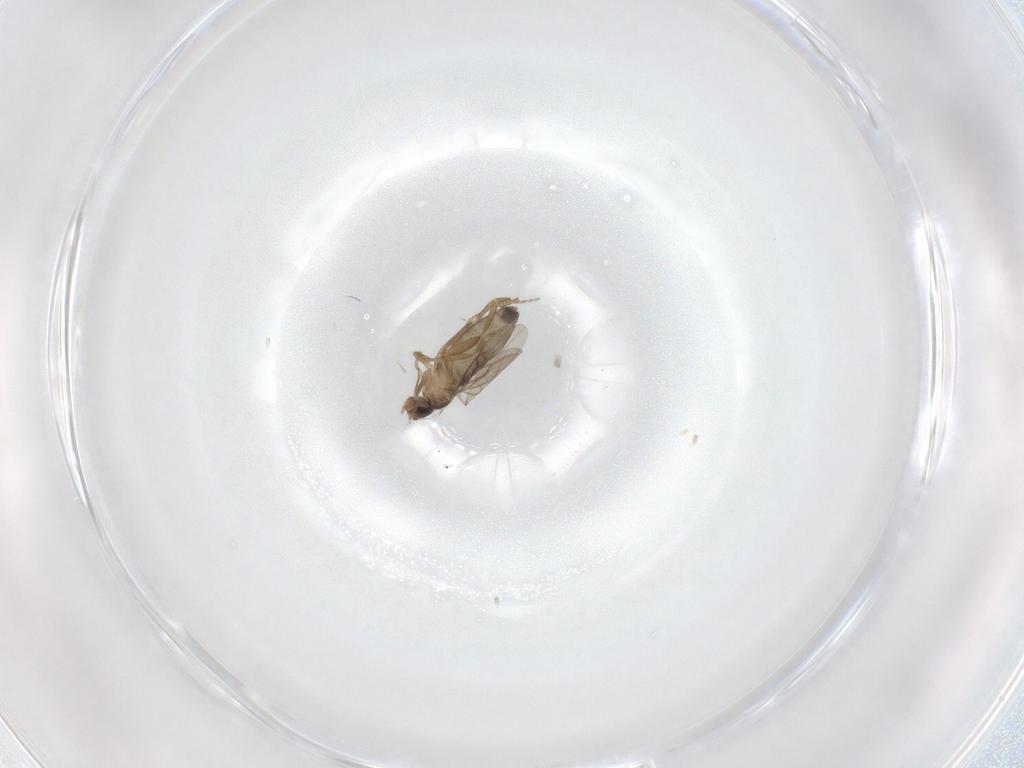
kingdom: Animalia
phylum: Arthropoda
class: Insecta
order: Diptera
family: Phoridae
